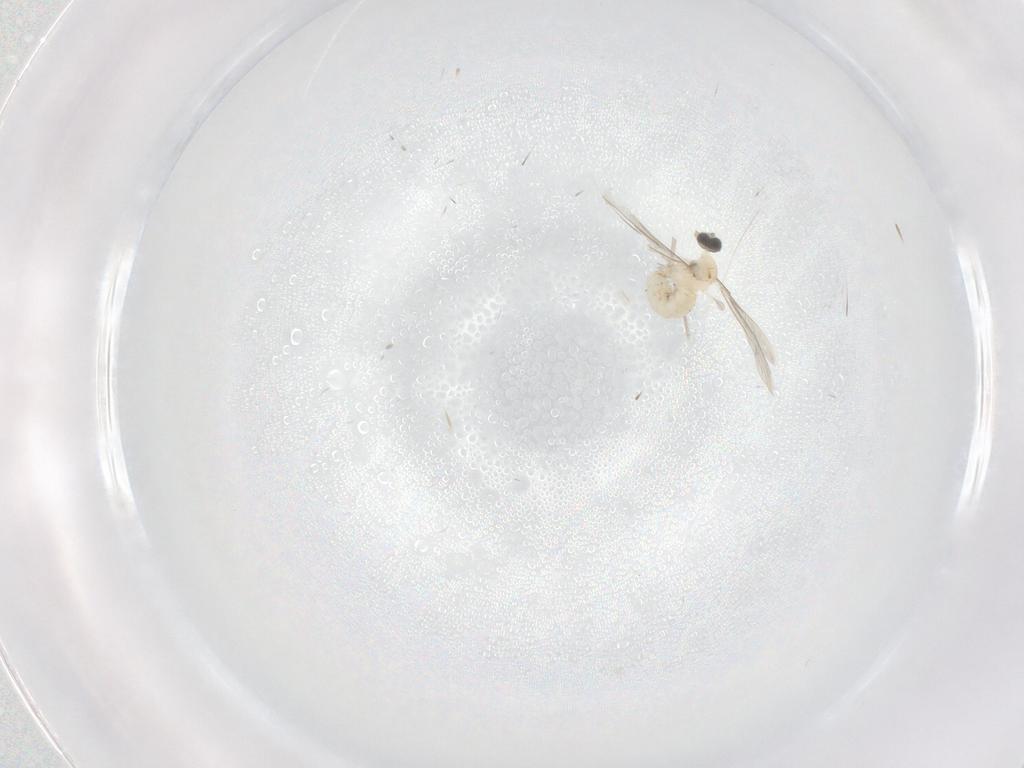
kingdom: Animalia
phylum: Arthropoda
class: Insecta
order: Diptera
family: Cecidomyiidae
